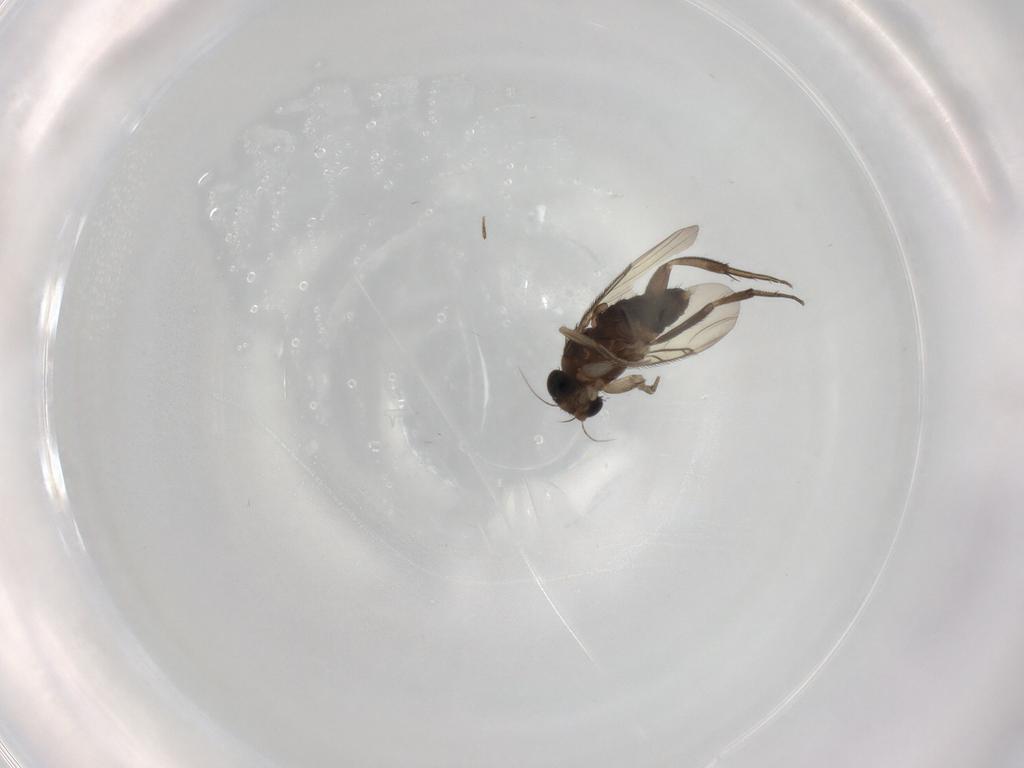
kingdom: Animalia
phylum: Arthropoda
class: Insecta
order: Diptera
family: Phoridae
